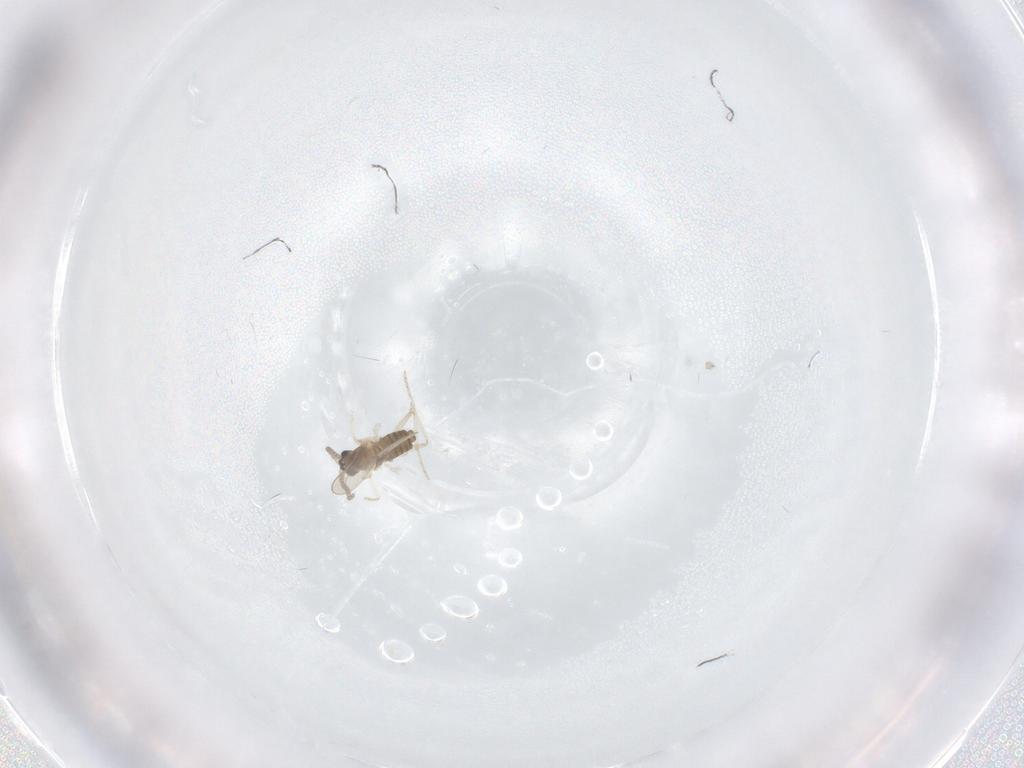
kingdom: Animalia
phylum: Arthropoda
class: Insecta
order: Diptera
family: Cecidomyiidae
